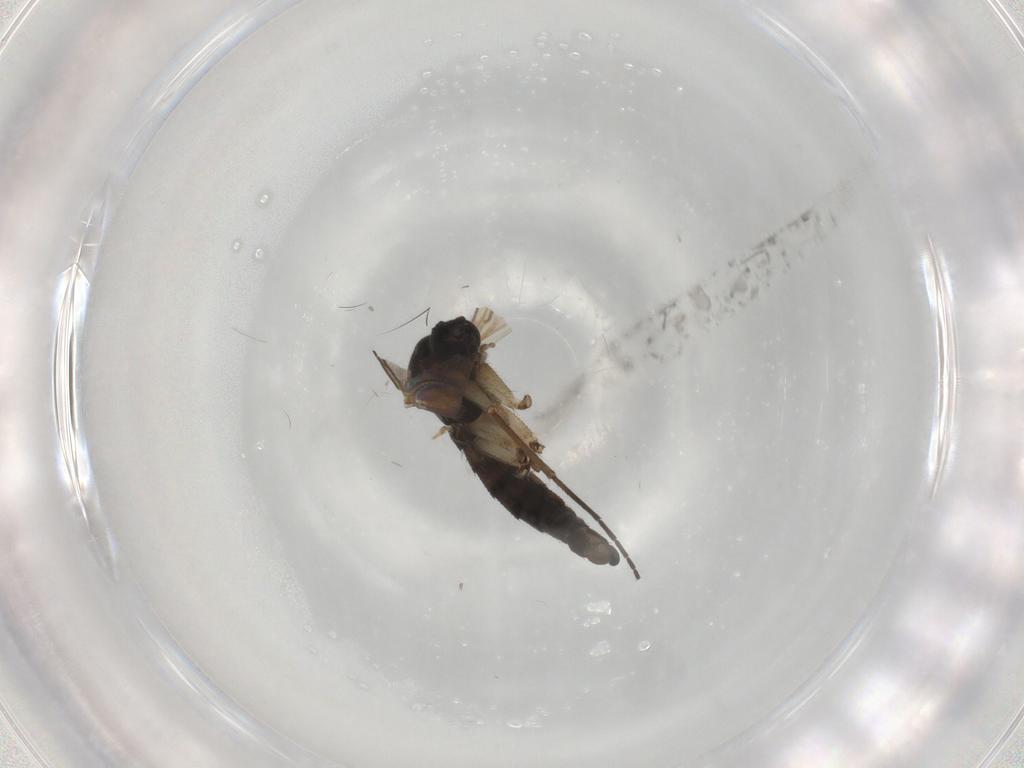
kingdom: Animalia
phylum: Arthropoda
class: Insecta
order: Diptera
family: Sciaridae
